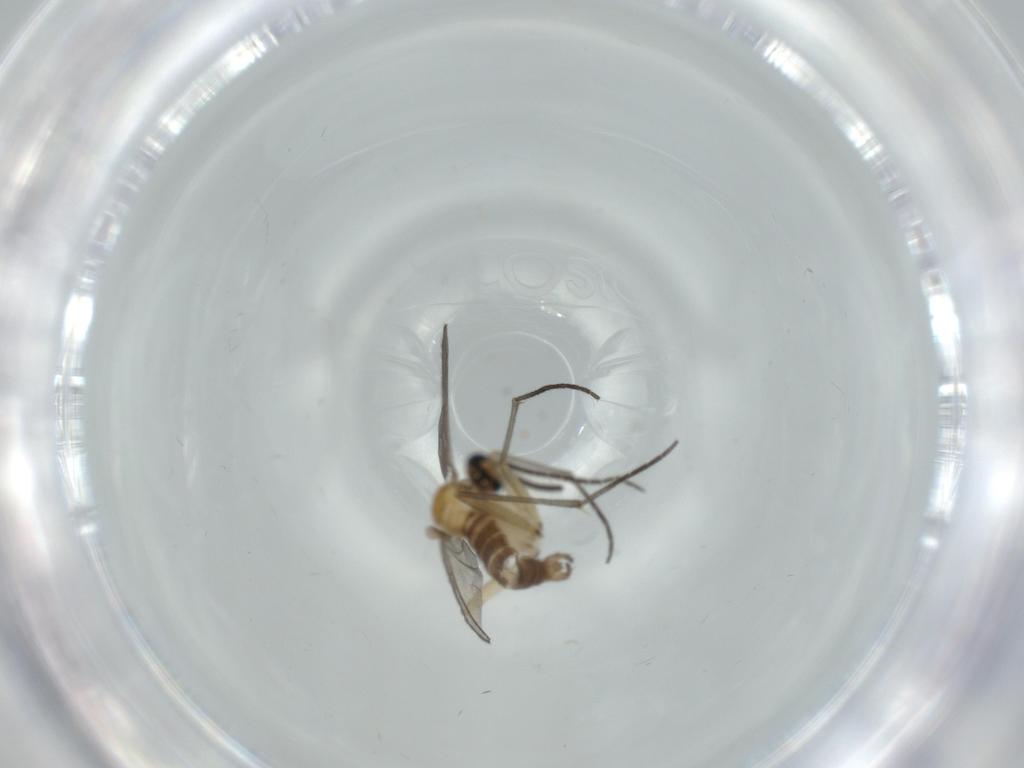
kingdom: Animalia
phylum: Arthropoda
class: Insecta
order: Diptera
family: Sciaridae
